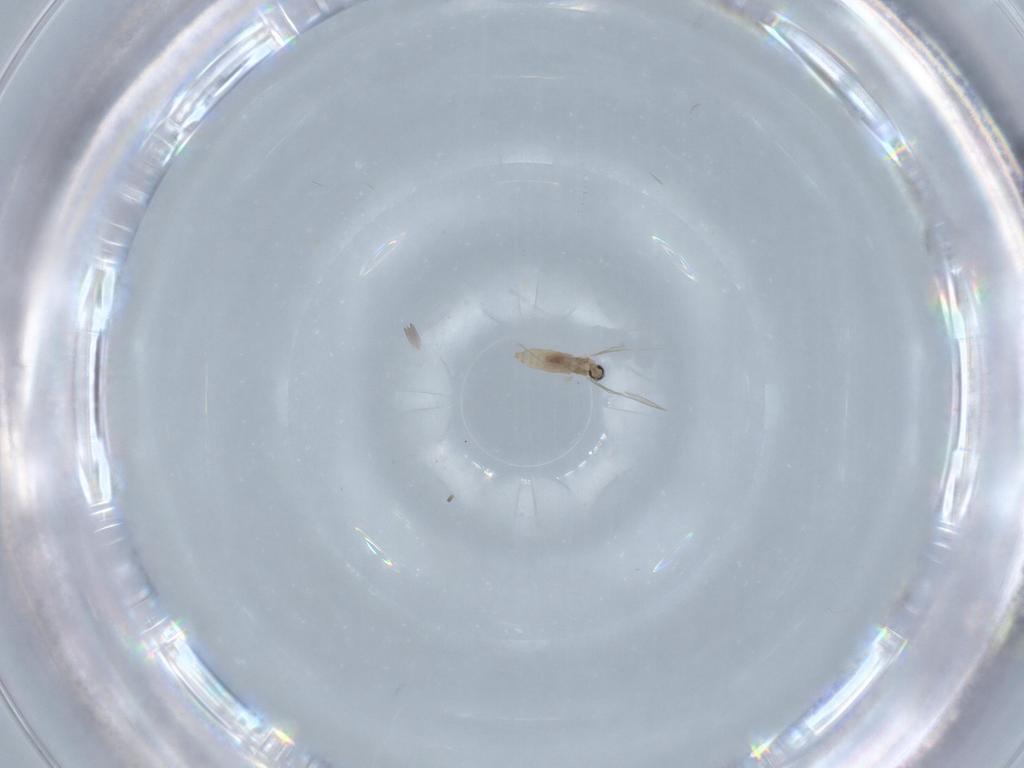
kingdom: Animalia
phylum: Arthropoda
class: Insecta
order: Diptera
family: Cecidomyiidae
